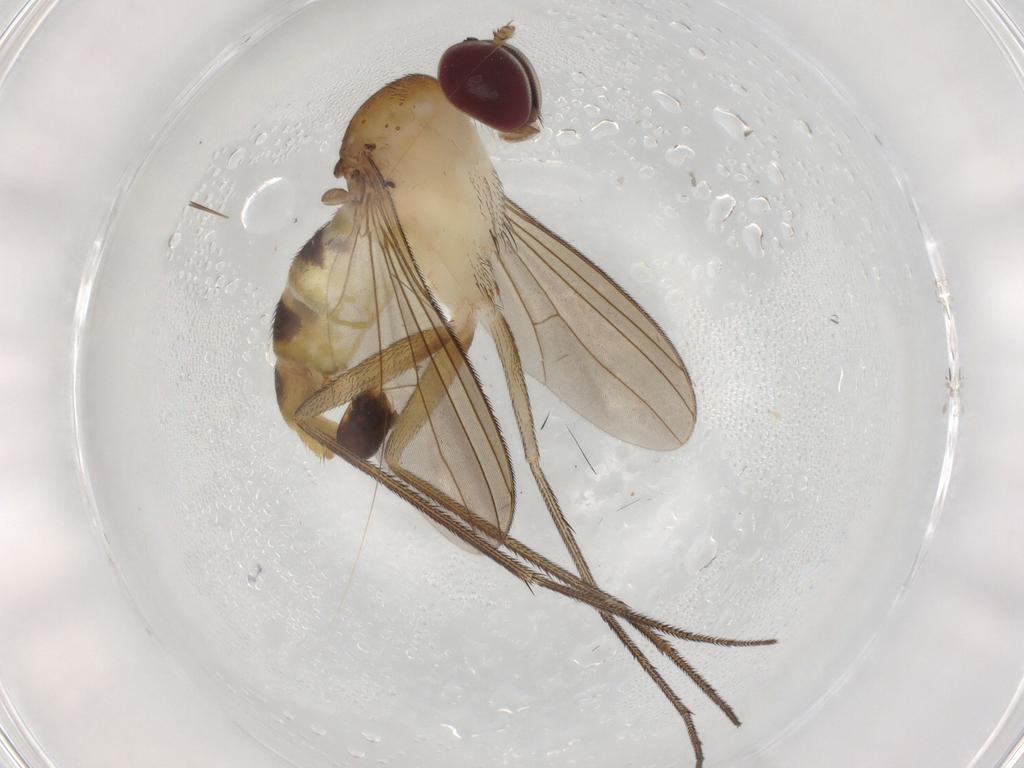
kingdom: Animalia
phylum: Arthropoda
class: Insecta
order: Diptera
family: Dolichopodidae
